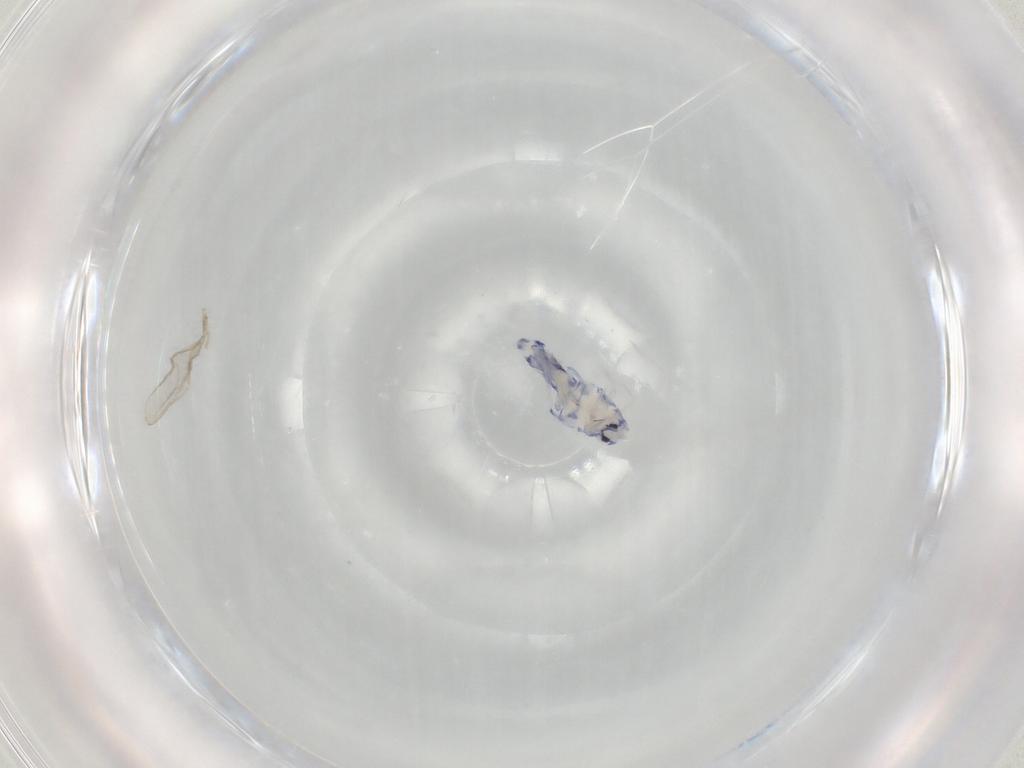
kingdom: Animalia
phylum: Arthropoda
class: Collembola
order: Entomobryomorpha
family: Entomobryidae
